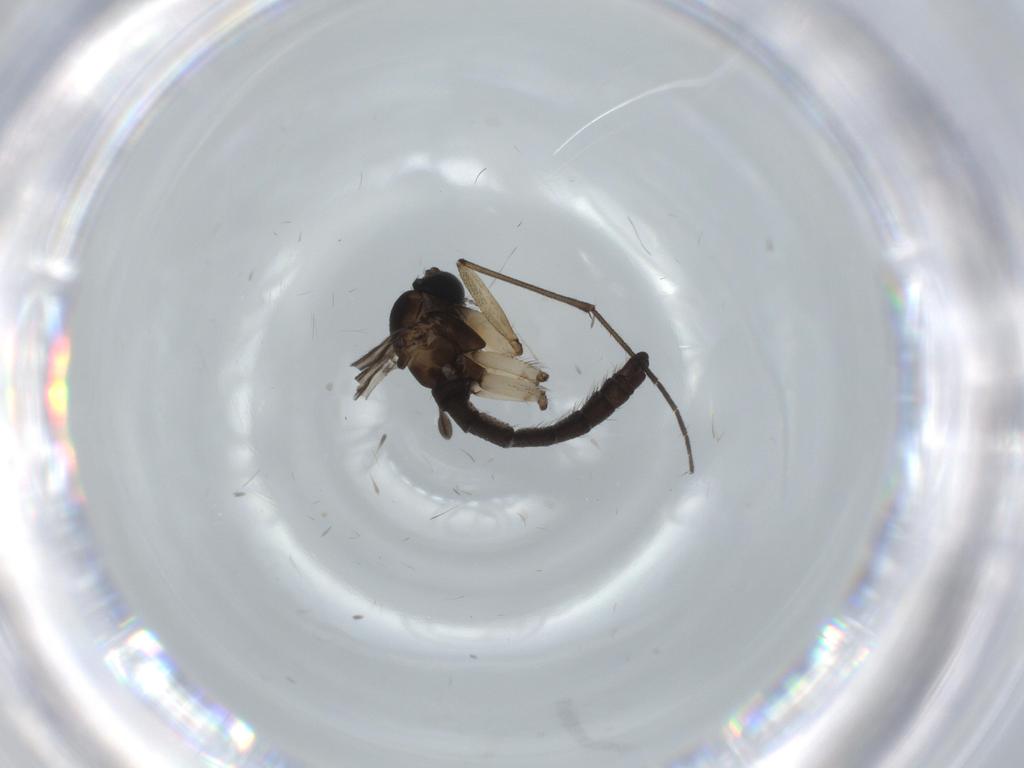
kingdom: Animalia
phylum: Arthropoda
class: Insecta
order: Diptera
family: Sciaridae
